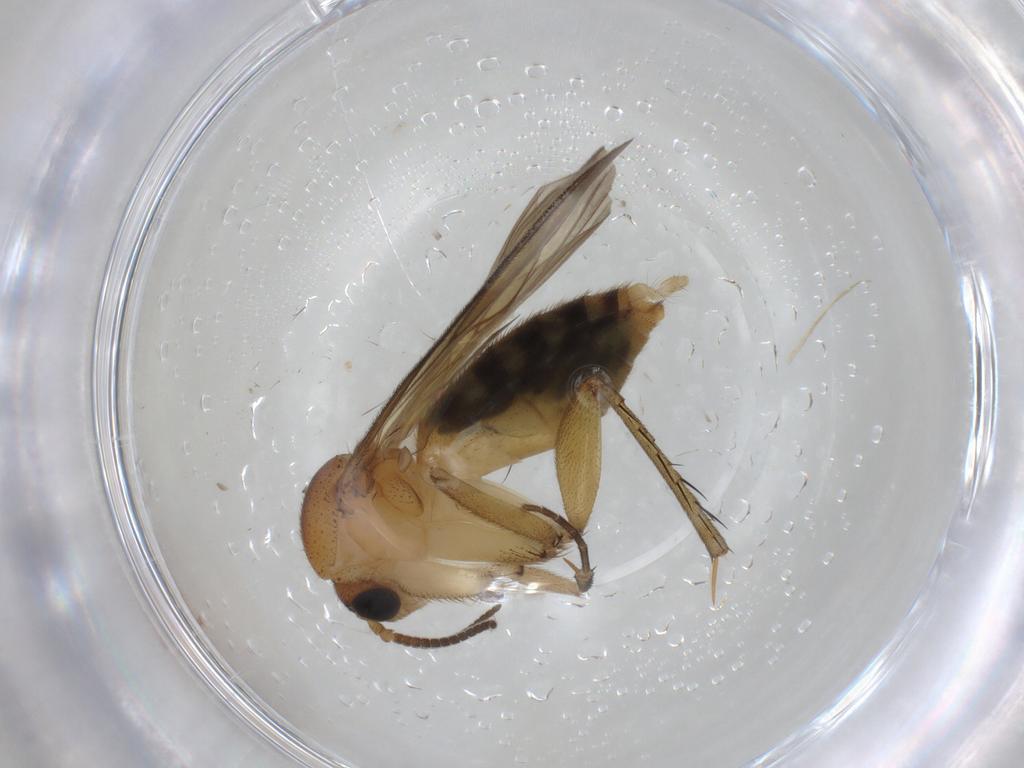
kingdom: Animalia
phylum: Arthropoda
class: Insecta
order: Diptera
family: Mycetophilidae
